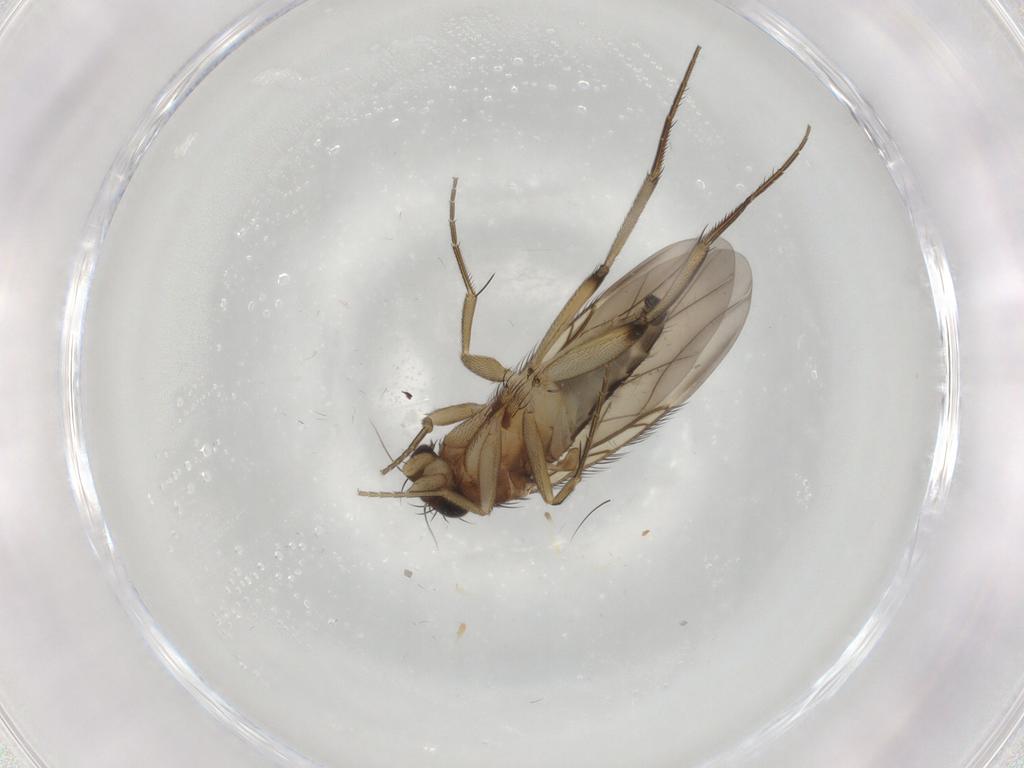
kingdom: Animalia
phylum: Arthropoda
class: Insecta
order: Diptera
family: Phoridae
